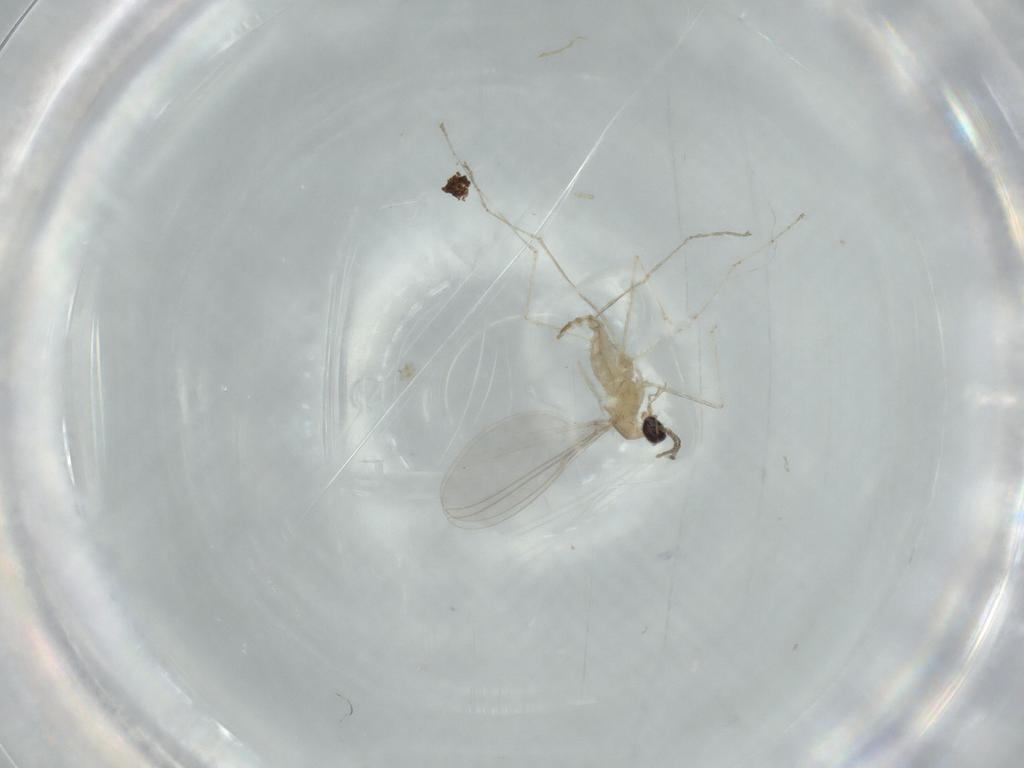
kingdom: Animalia
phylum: Arthropoda
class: Insecta
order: Diptera
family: Cecidomyiidae
